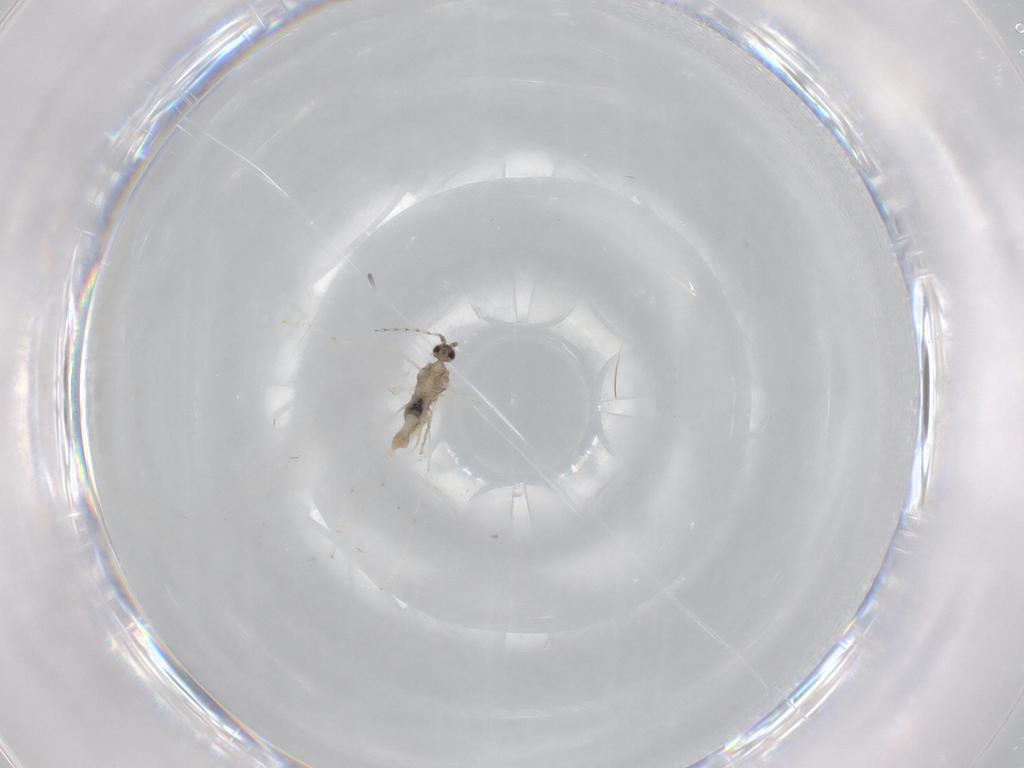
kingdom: Animalia
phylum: Arthropoda
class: Insecta
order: Diptera
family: Cecidomyiidae
